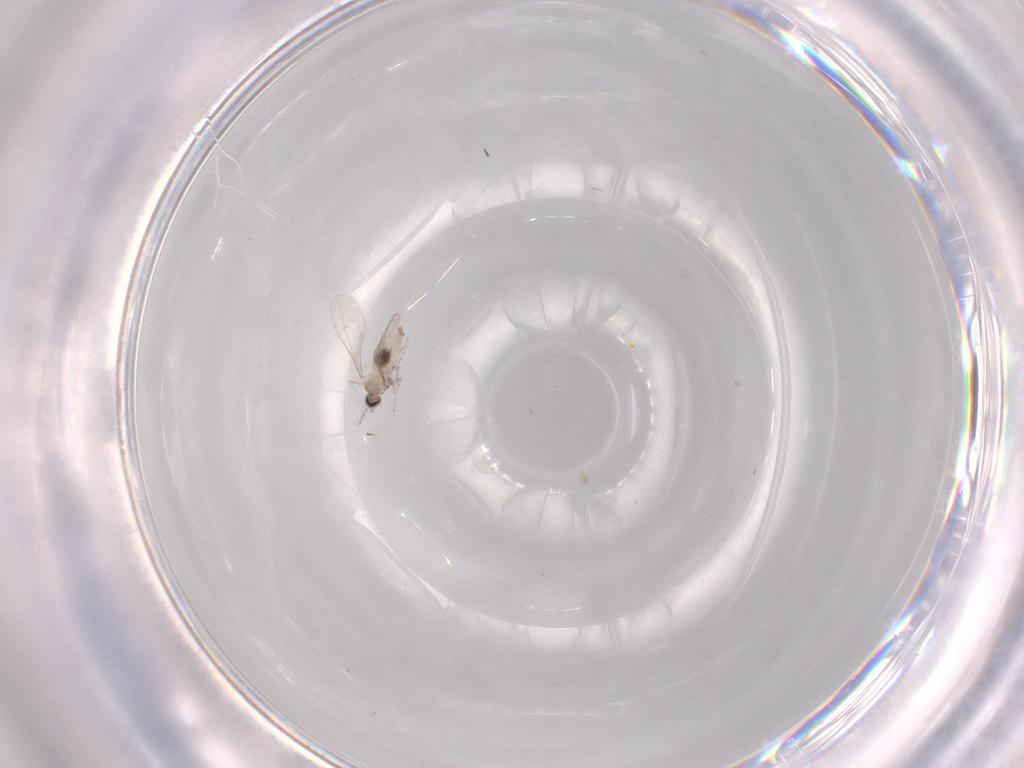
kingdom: Animalia
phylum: Arthropoda
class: Insecta
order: Diptera
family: Cecidomyiidae
